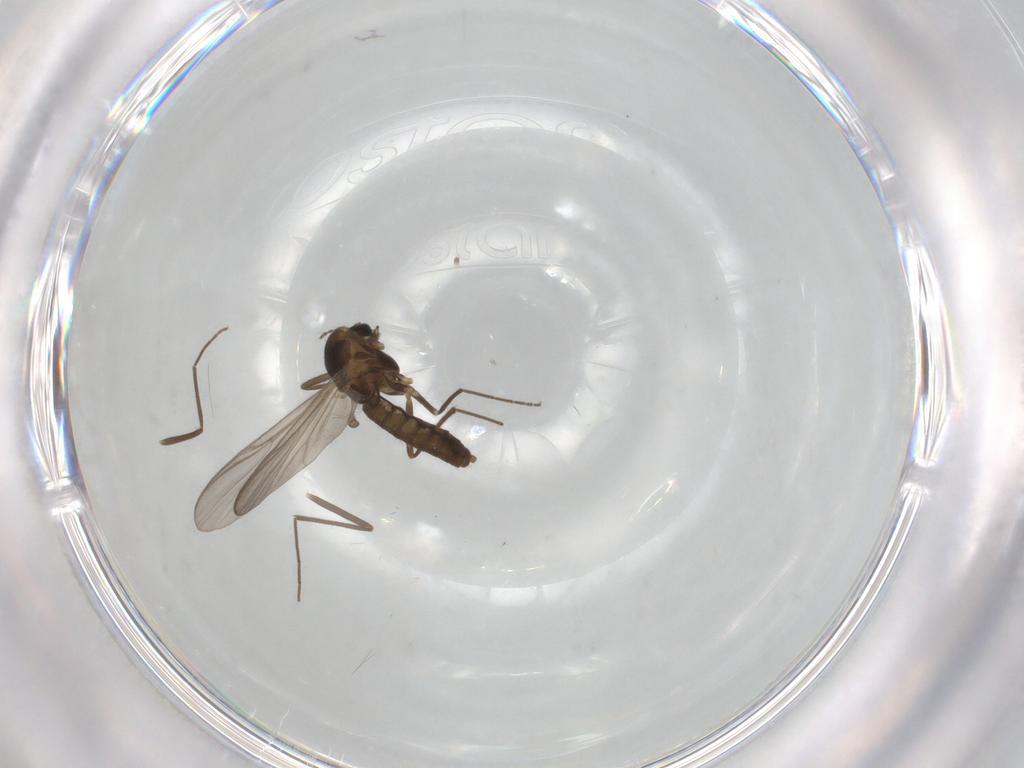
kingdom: Animalia
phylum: Arthropoda
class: Insecta
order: Diptera
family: Chironomidae
